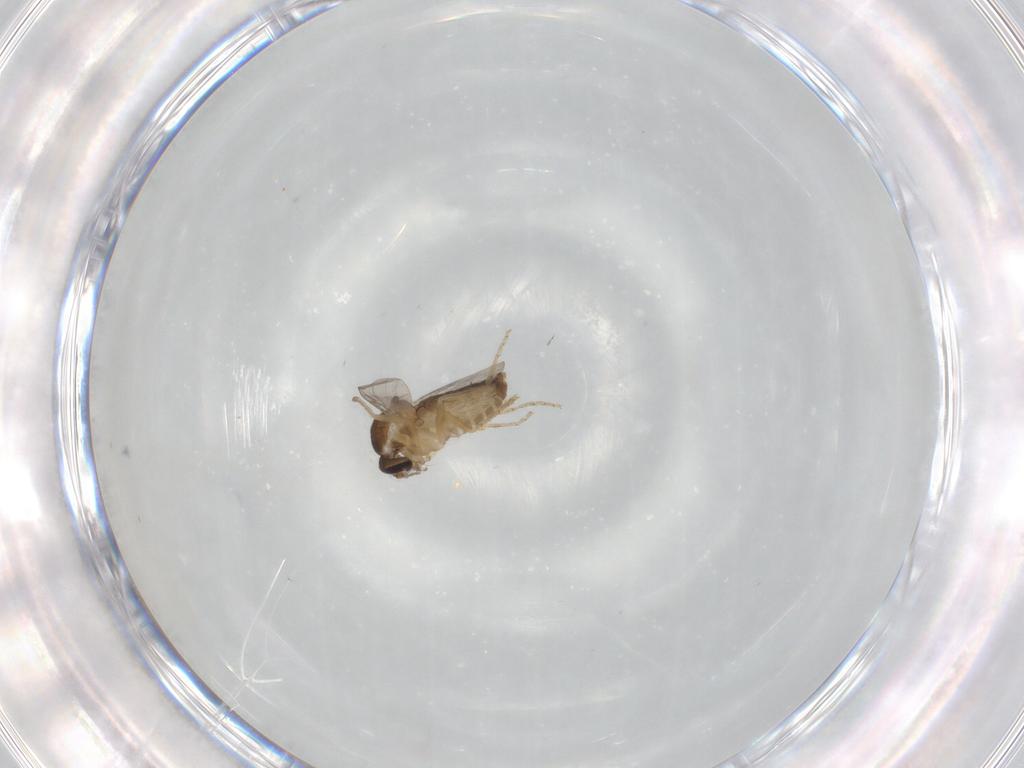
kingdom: Animalia
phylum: Arthropoda
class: Insecta
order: Diptera
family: Ceratopogonidae
